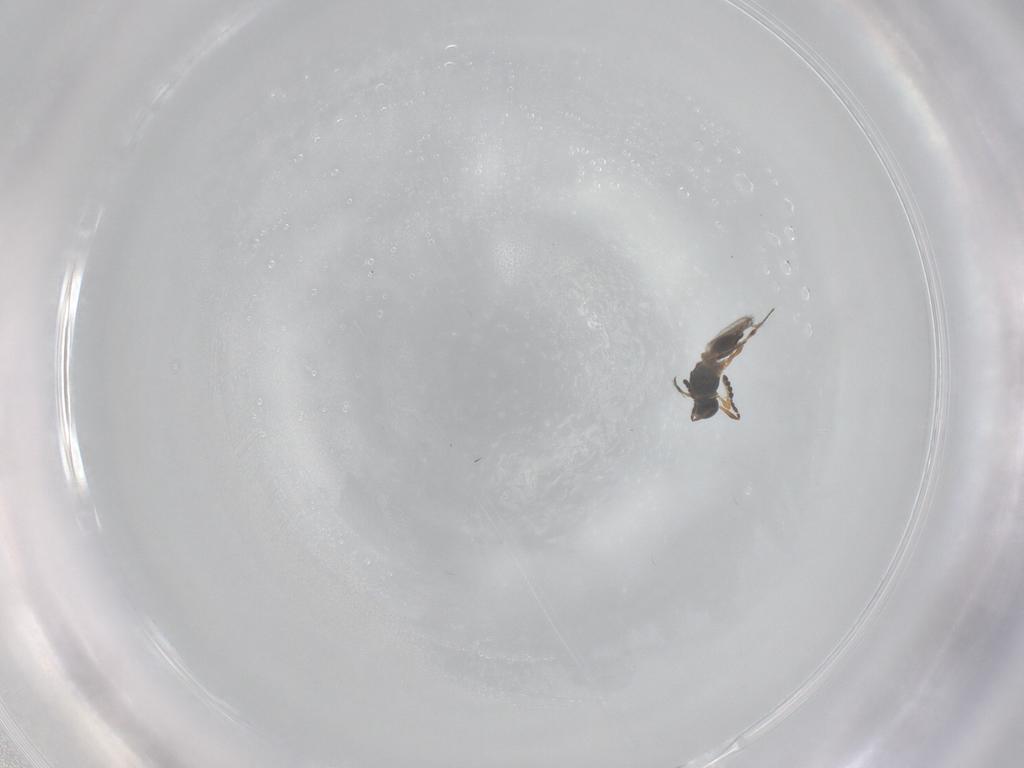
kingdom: Animalia
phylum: Arthropoda
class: Insecta
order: Hymenoptera
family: Platygastridae
